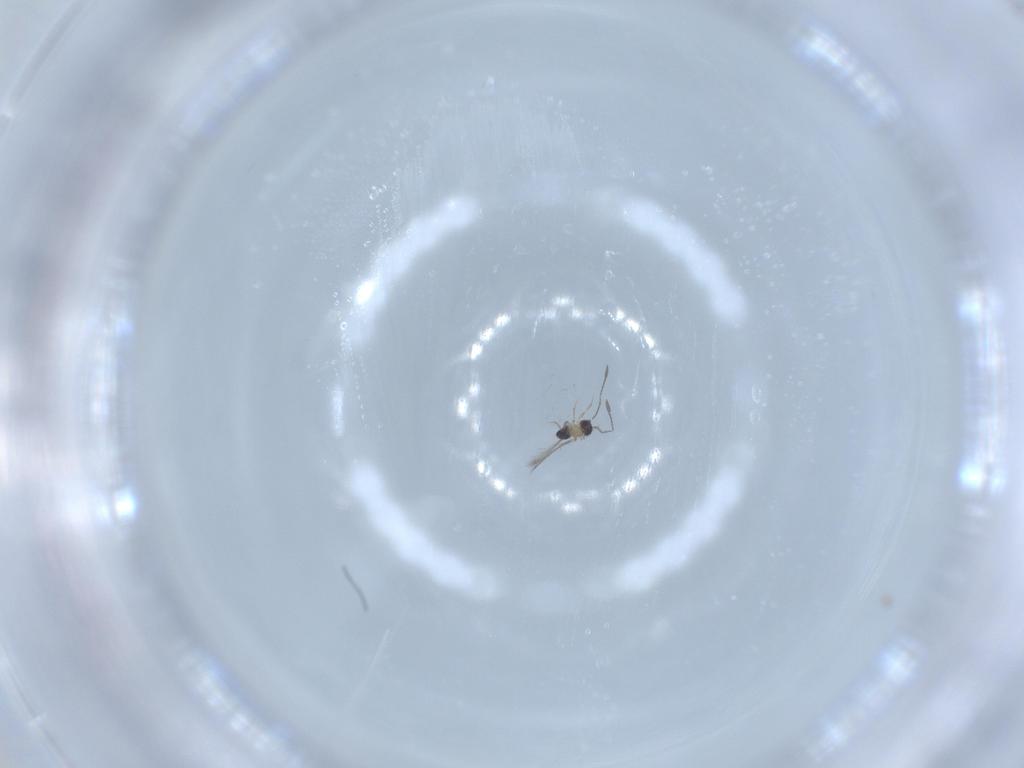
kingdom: Animalia
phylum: Arthropoda
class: Insecta
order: Hymenoptera
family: Mymaridae
